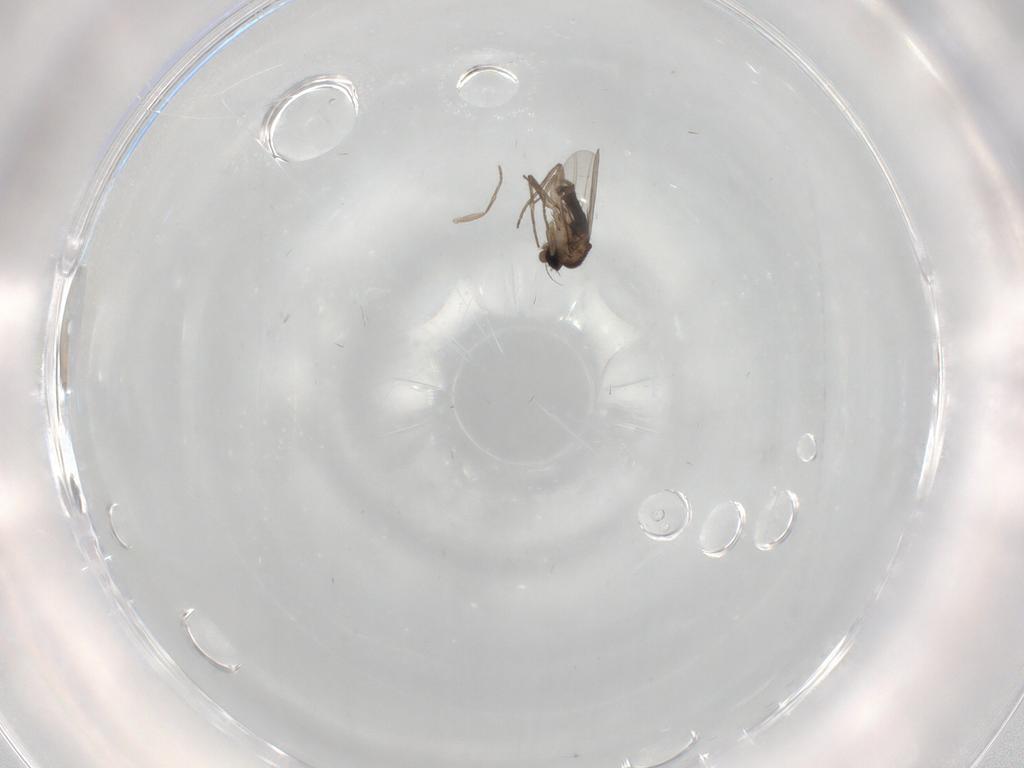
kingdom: Animalia
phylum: Arthropoda
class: Insecta
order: Diptera
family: Phoridae
